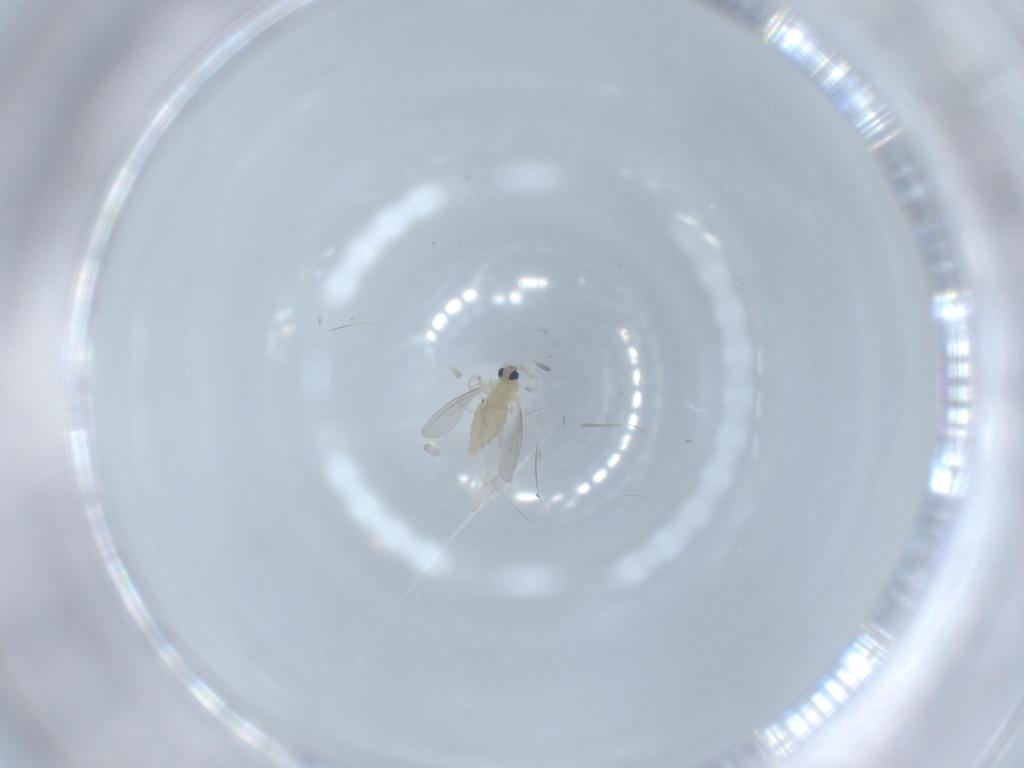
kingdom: Animalia
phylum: Arthropoda
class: Insecta
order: Diptera
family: Cecidomyiidae
